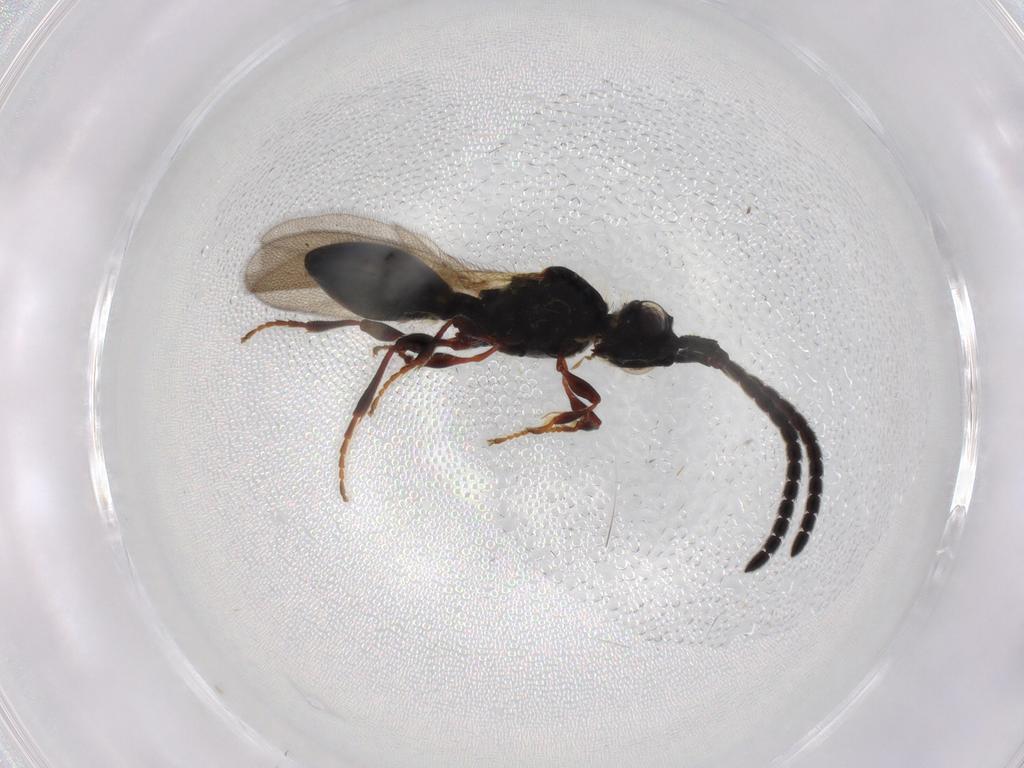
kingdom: Animalia
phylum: Arthropoda
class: Insecta
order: Hymenoptera
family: Diapriidae
